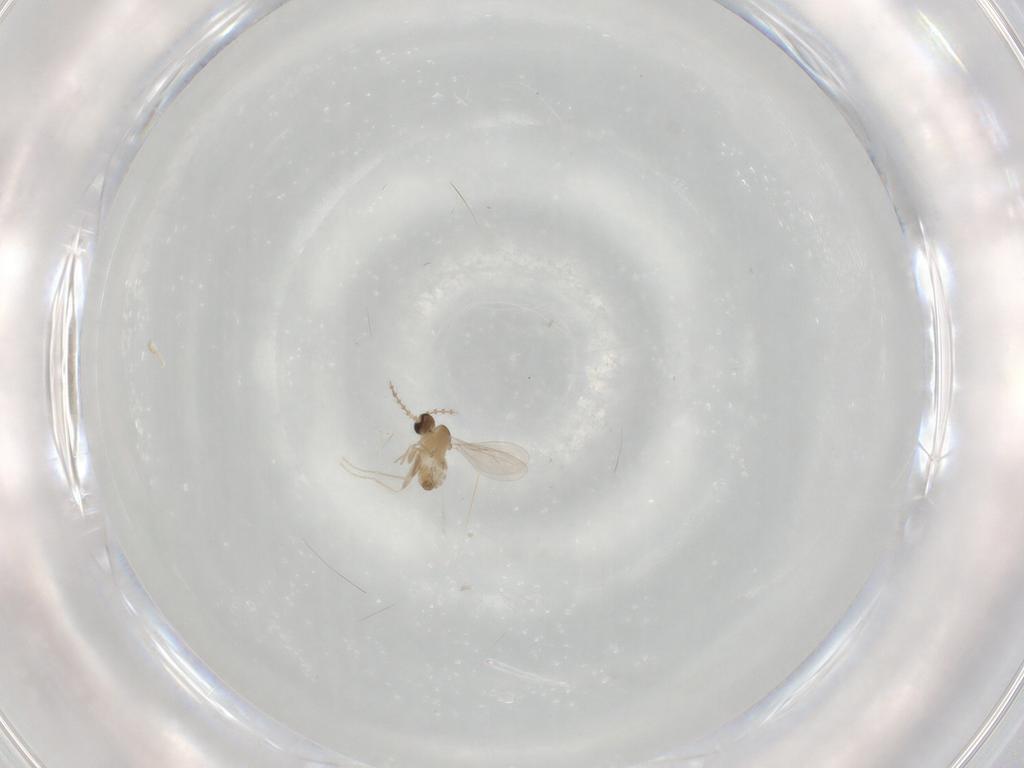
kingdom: Animalia
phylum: Arthropoda
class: Insecta
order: Diptera
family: Cecidomyiidae
